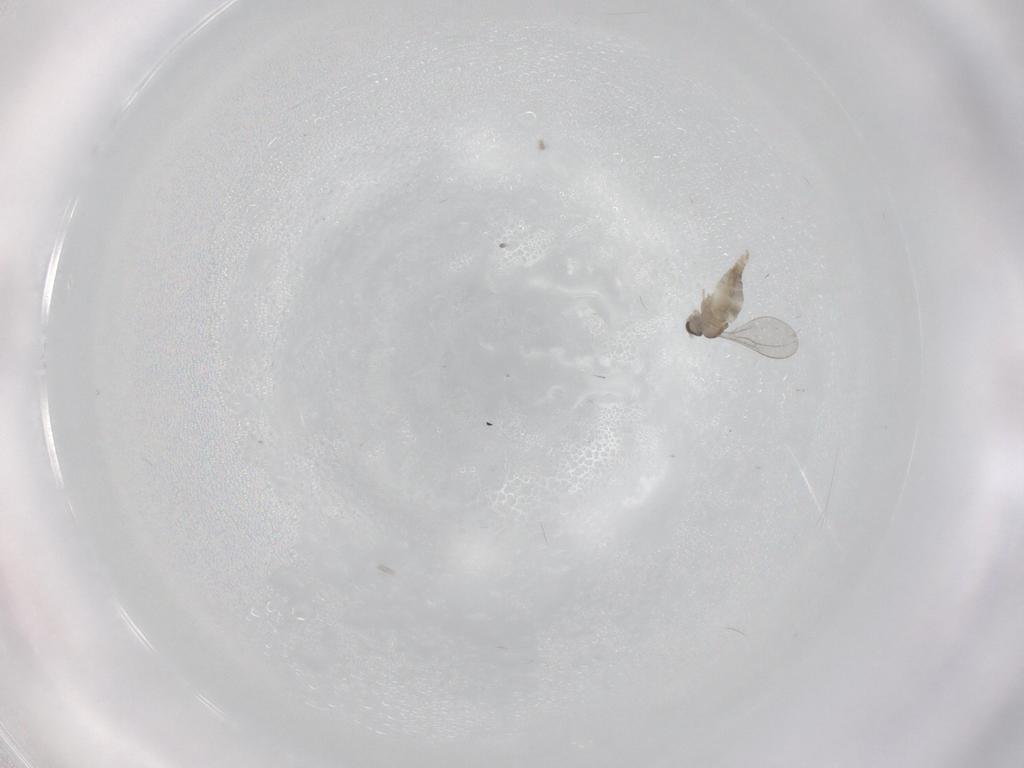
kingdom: Animalia
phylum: Arthropoda
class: Insecta
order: Diptera
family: Cecidomyiidae
